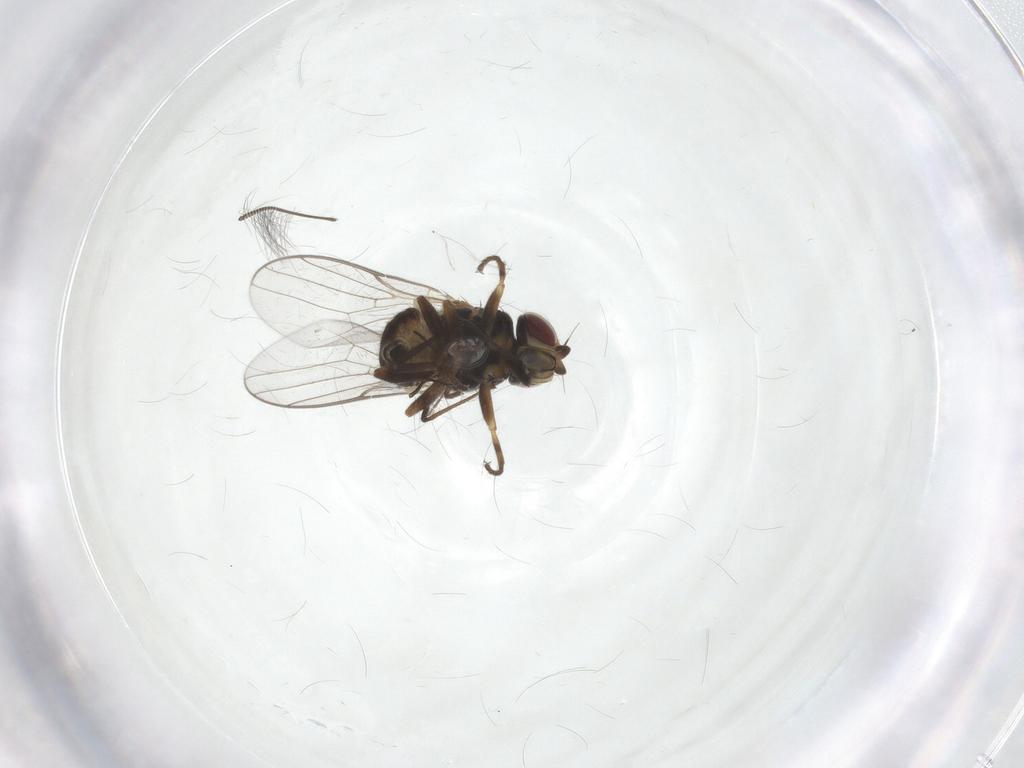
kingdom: Animalia
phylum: Arthropoda
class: Insecta
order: Diptera
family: Chloropidae
